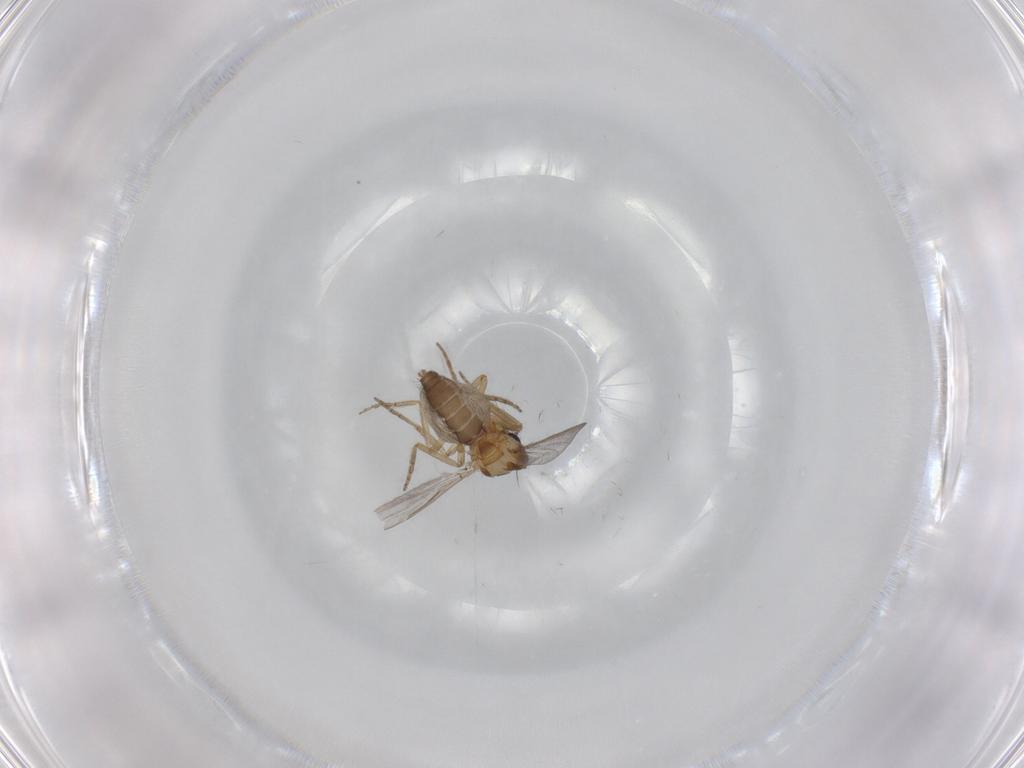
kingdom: Animalia
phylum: Arthropoda
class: Insecta
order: Diptera
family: Ceratopogonidae
